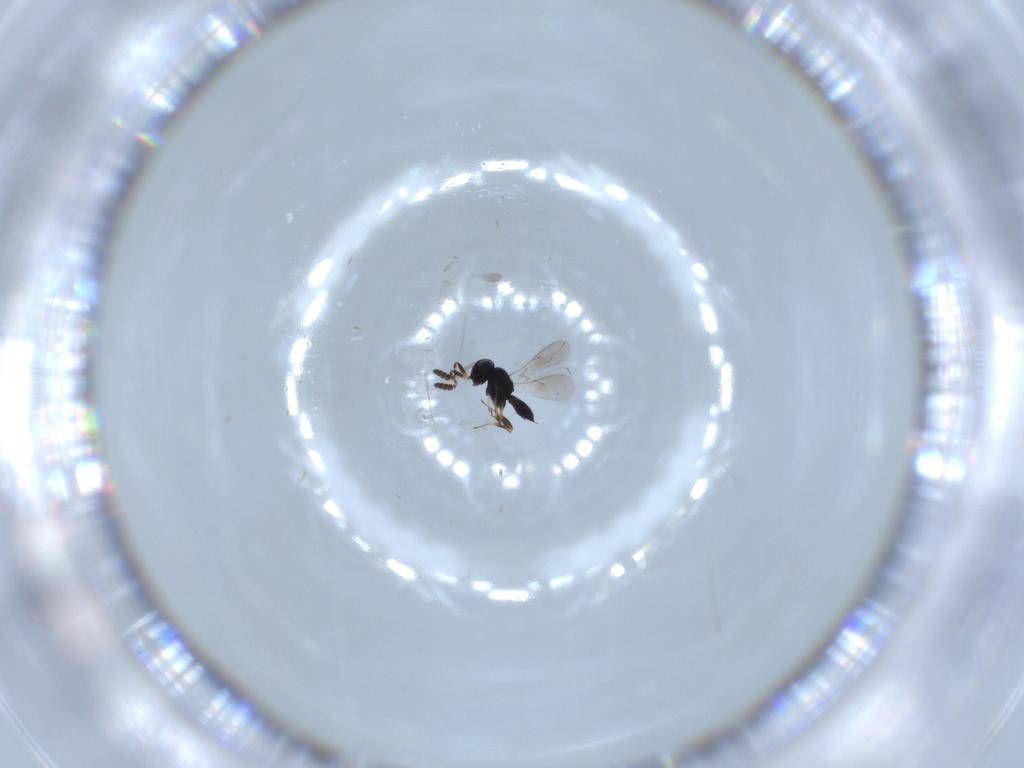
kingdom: Animalia
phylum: Arthropoda
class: Insecta
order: Hymenoptera
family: Scelionidae
